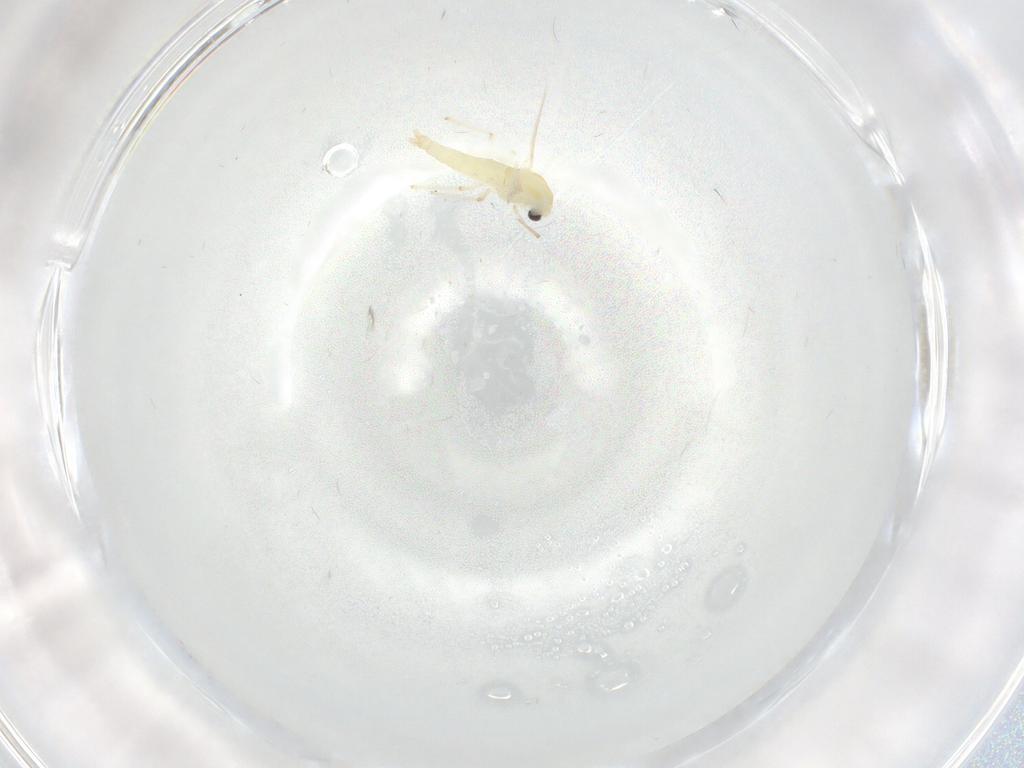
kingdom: Animalia
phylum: Arthropoda
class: Insecta
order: Diptera
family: Chironomidae
